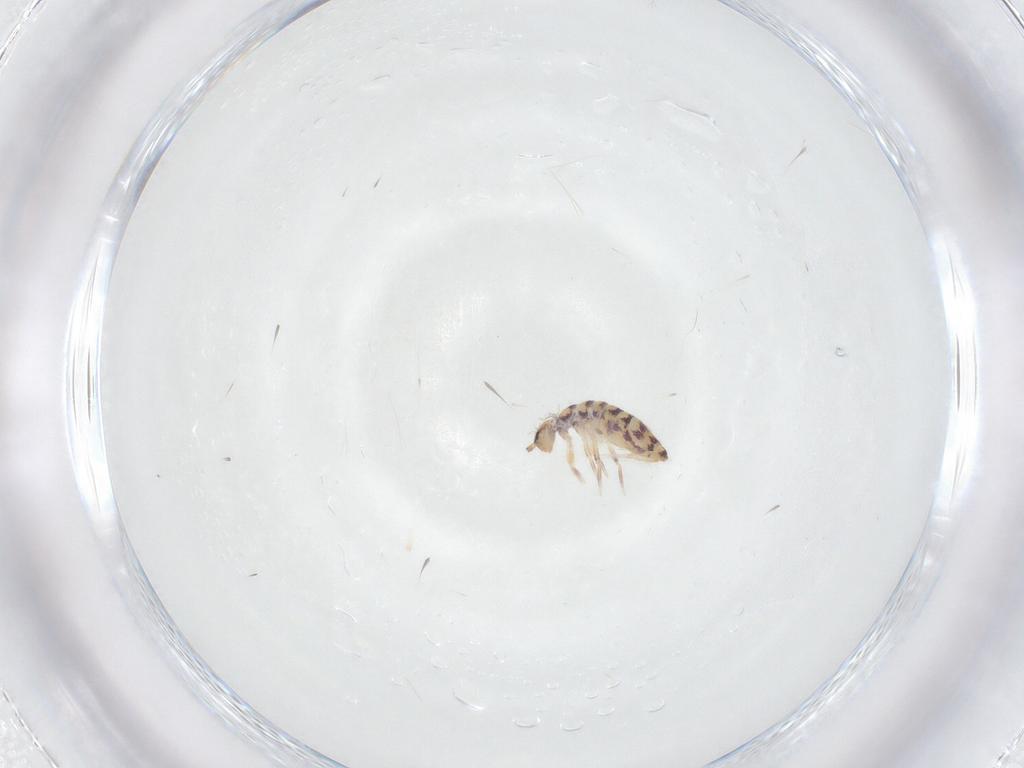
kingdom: Animalia
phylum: Arthropoda
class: Collembola
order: Entomobryomorpha
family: Entomobryidae
